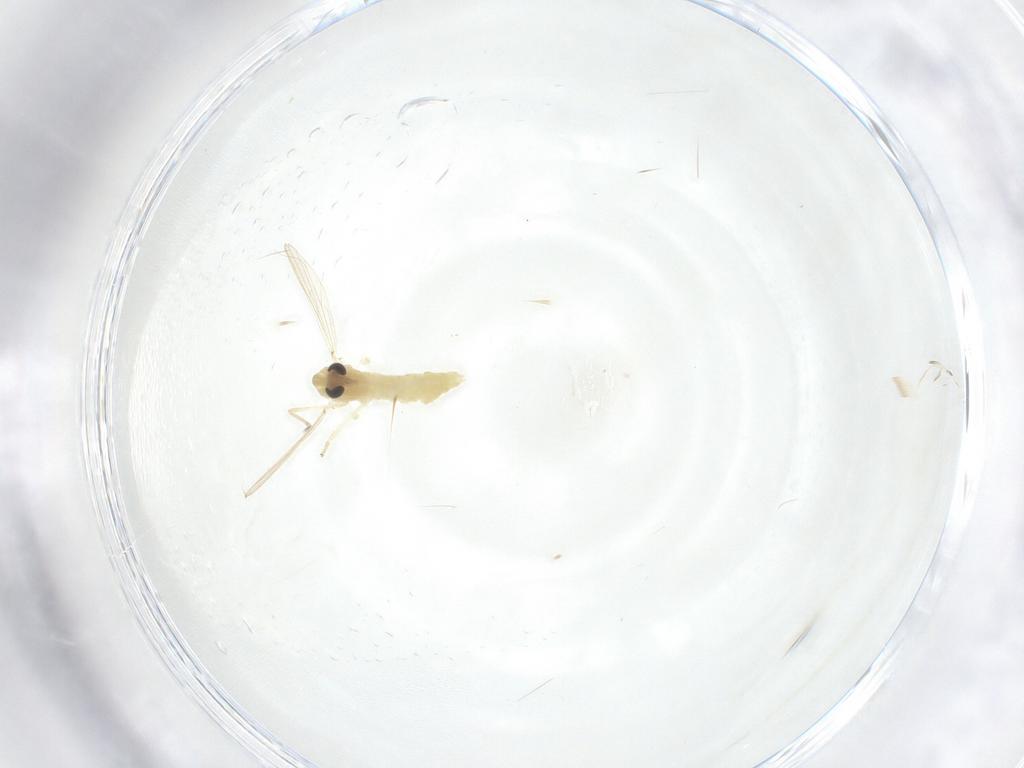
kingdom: Animalia
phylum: Arthropoda
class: Insecta
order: Diptera
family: Chironomidae
